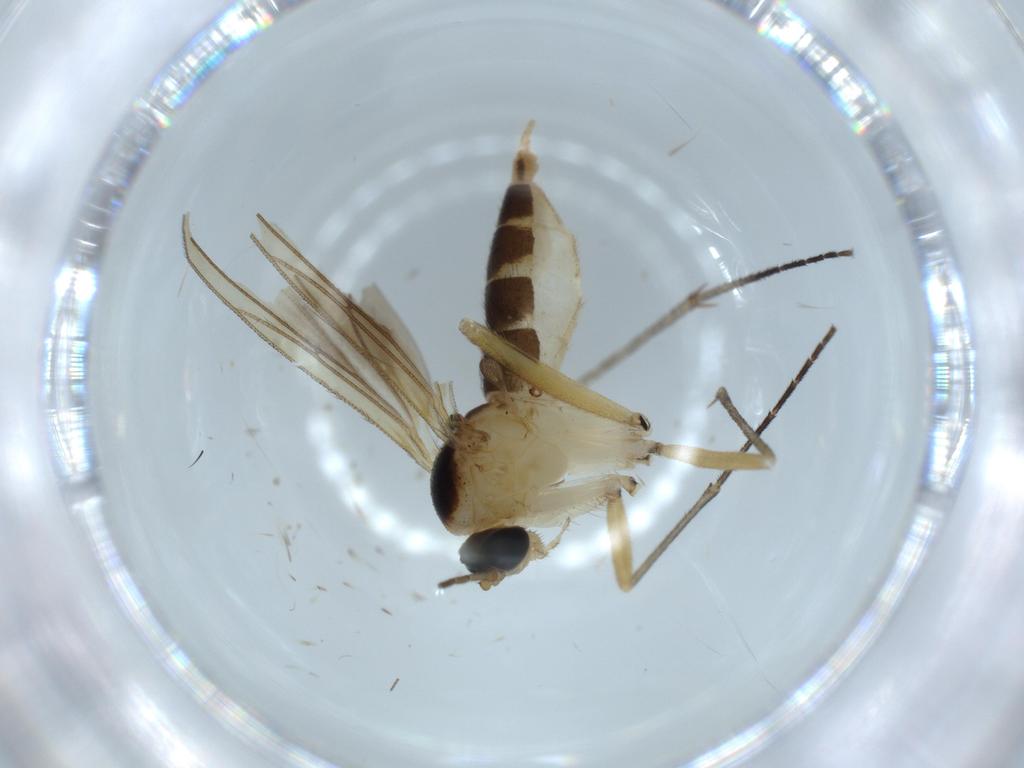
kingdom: Animalia
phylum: Arthropoda
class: Insecta
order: Diptera
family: Sciaridae
